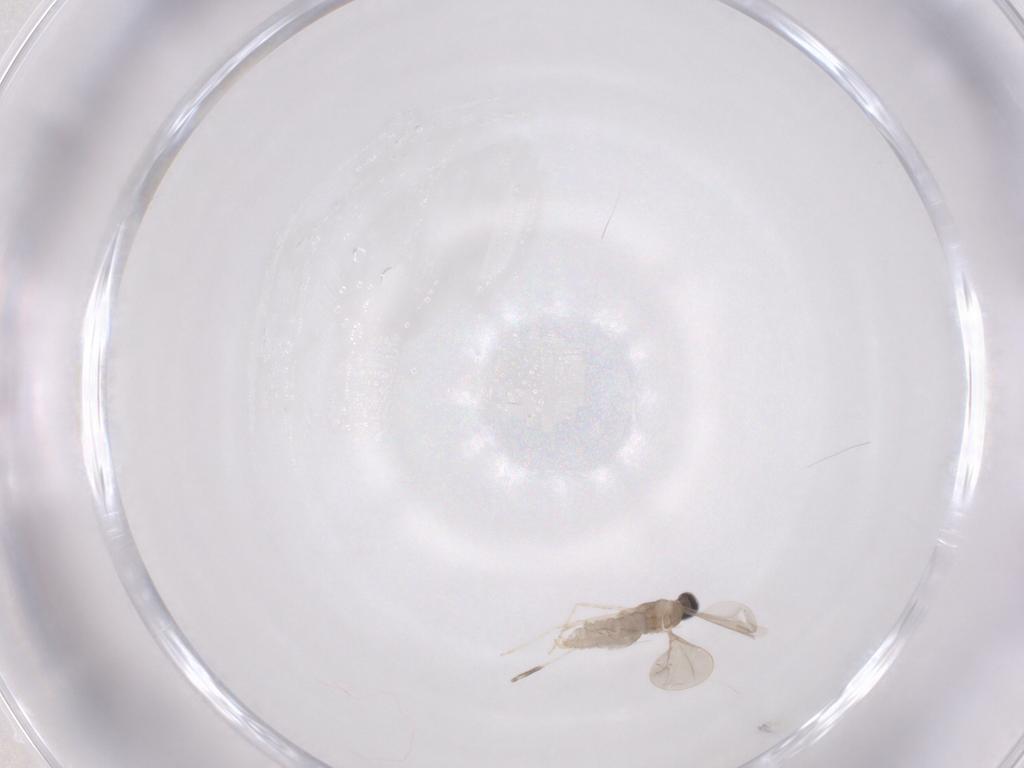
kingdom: Animalia
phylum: Arthropoda
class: Insecta
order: Diptera
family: Cecidomyiidae
